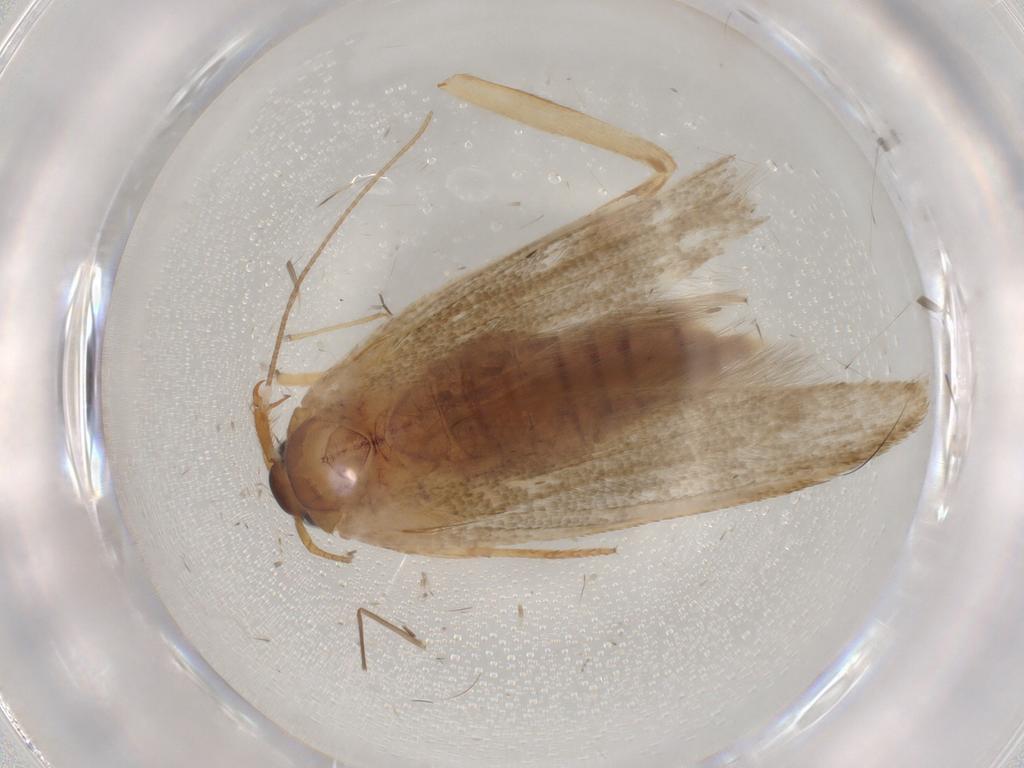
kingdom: Animalia
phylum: Arthropoda
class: Insecta
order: Lepidoptera
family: Blastobasidae
